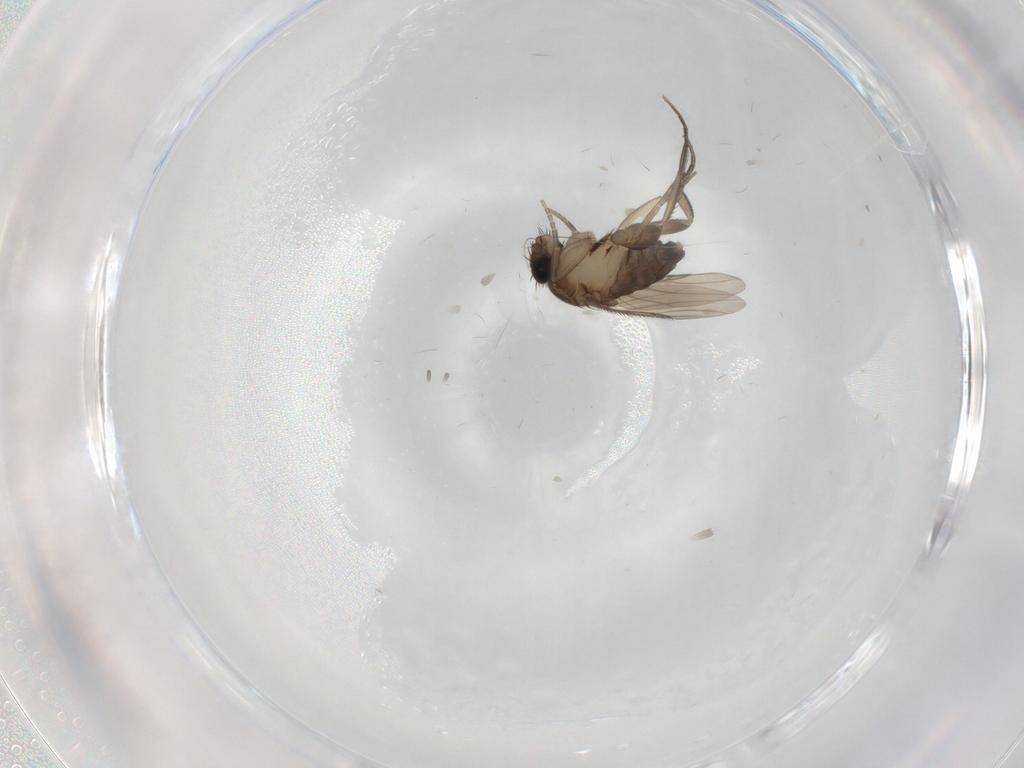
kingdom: Animalia
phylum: Arthropoda
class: Insecta
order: Diptera
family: Phoridae
